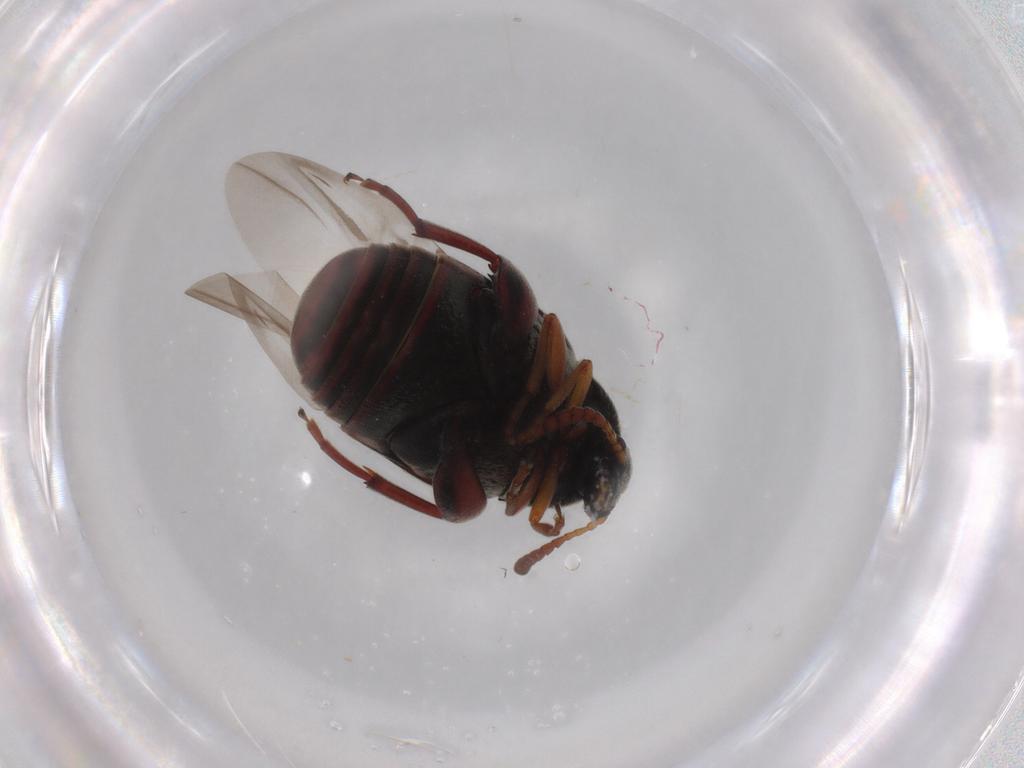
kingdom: Animalia
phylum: Arthropoda
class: Insecta
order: Coleoptera
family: Chrysomelidae
